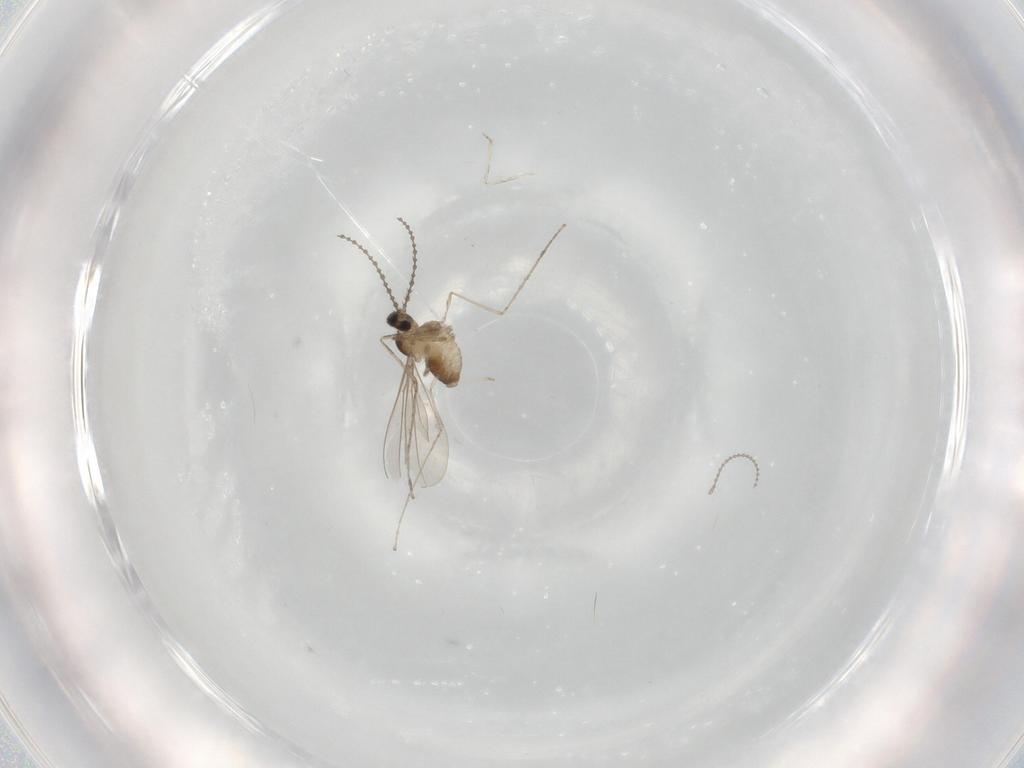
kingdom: Animalia
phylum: Arthropoda
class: Insecta
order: Diptera
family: Cecidomyiidae
